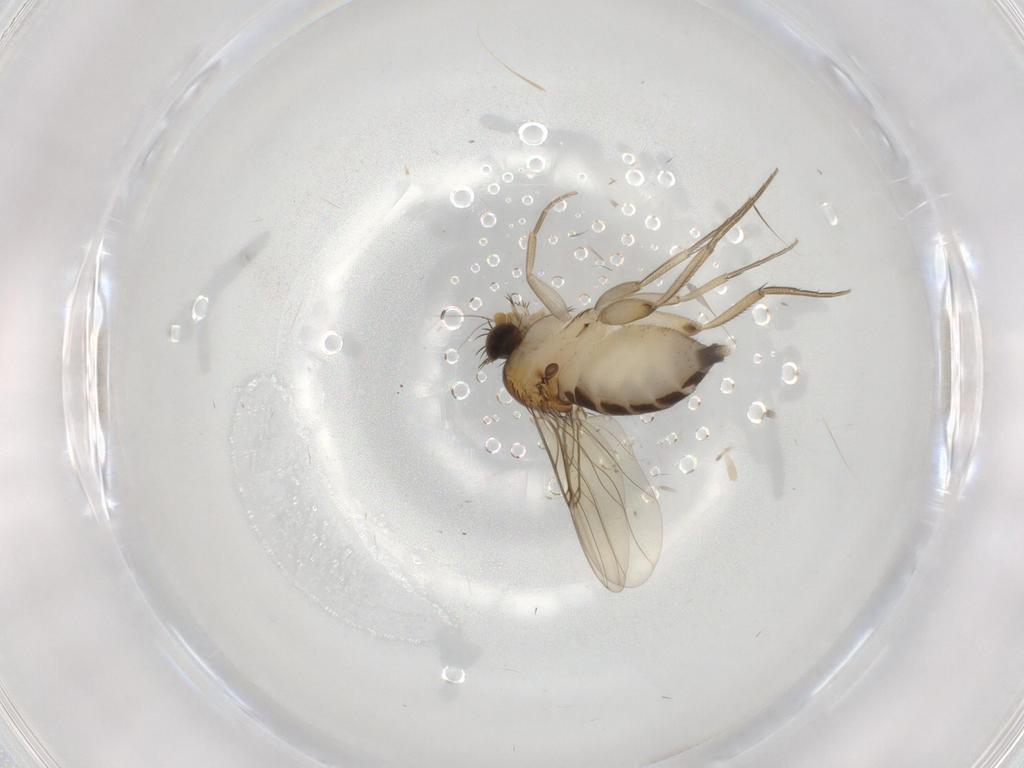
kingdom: Animalia
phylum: Arthropoda
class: Insecta
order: Diptera
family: Phoridae
